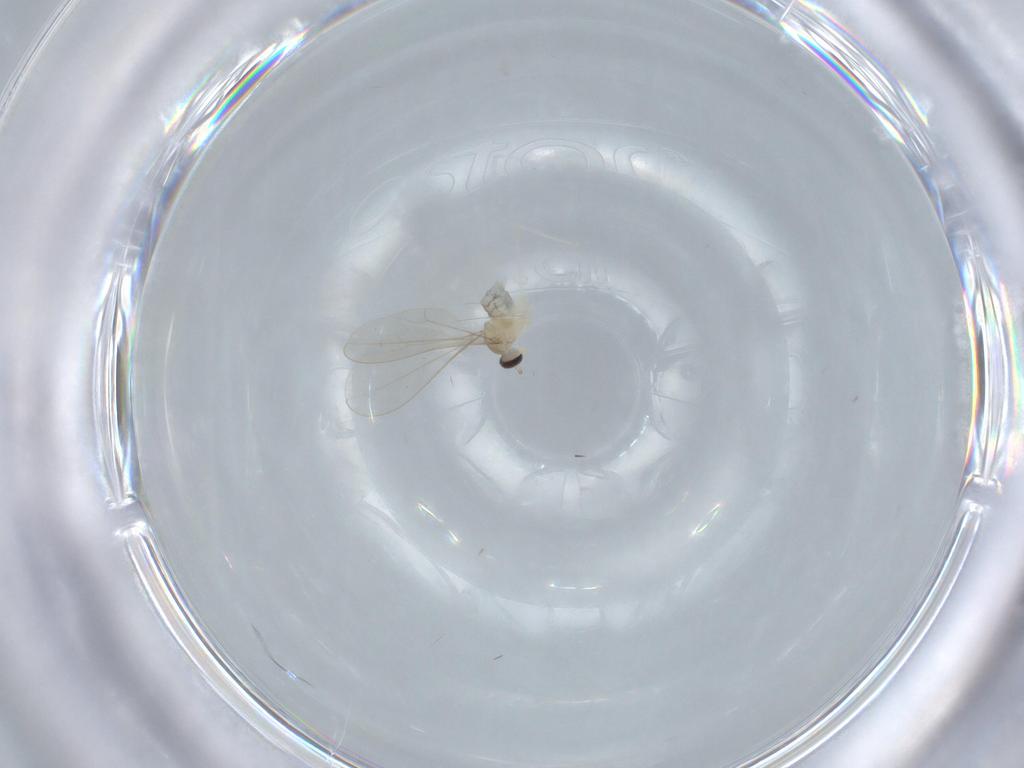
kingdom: Animalia
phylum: Arthropoda
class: Insecta
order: Diptera
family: Cecidomyiidae
